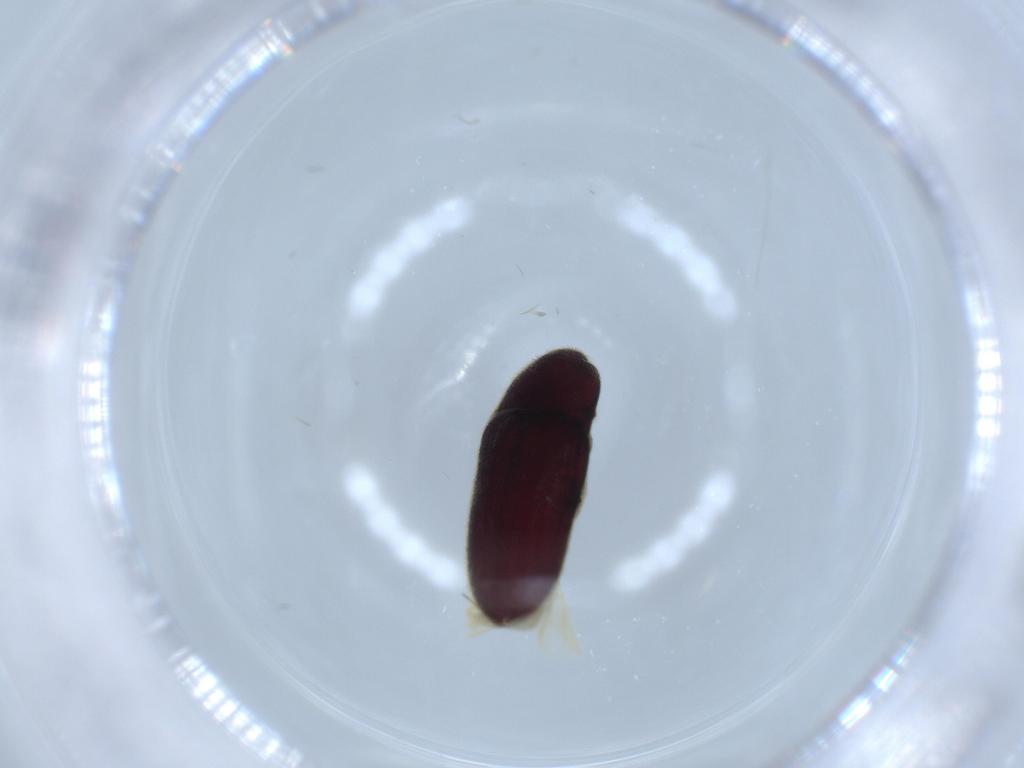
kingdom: Animalia
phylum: Arthropoda
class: Insecta
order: Coleoptera
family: Throscidae
